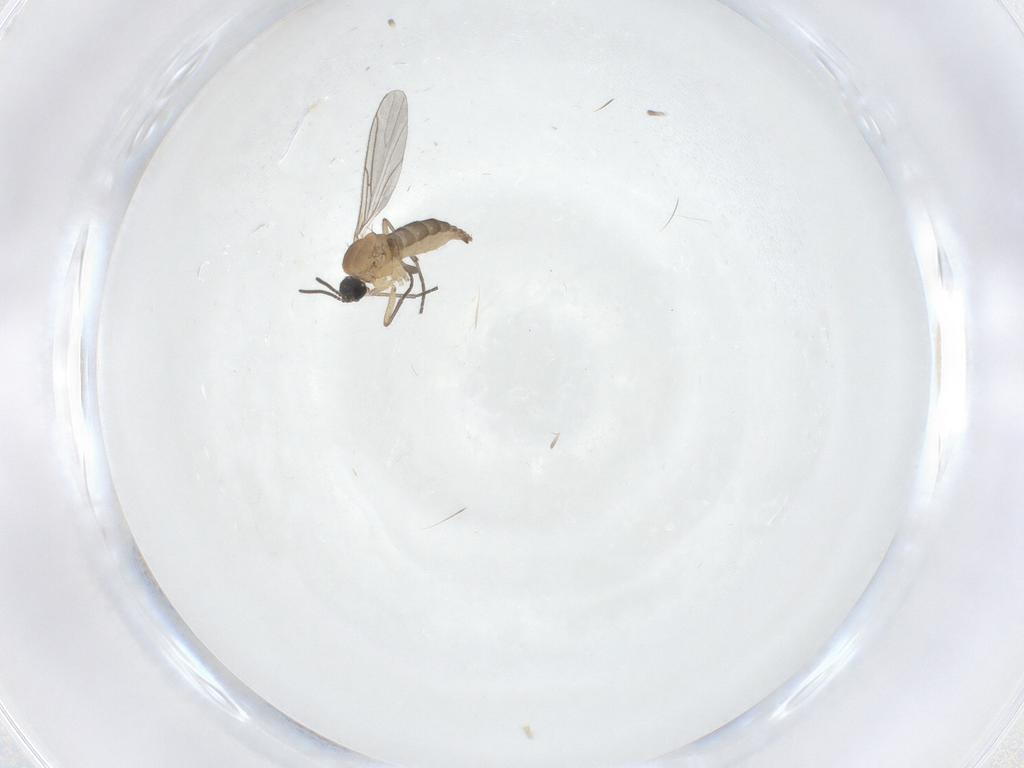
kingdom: Animalia
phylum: Arthropoda
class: Insecta
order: Diptera
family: Sciaridae
